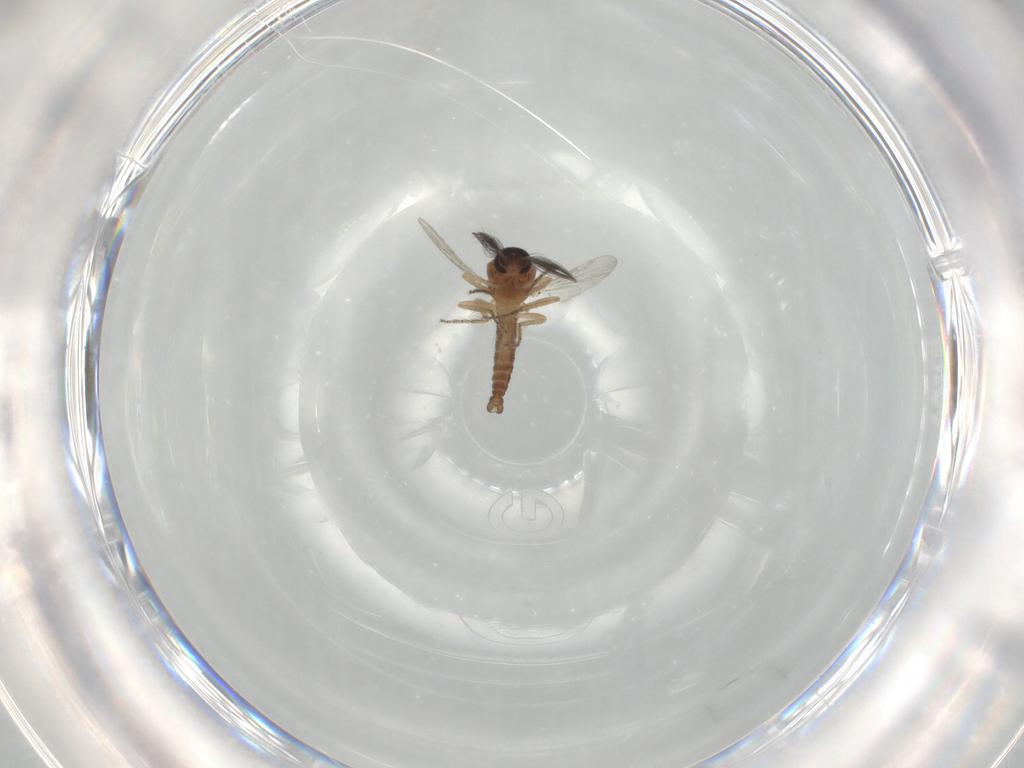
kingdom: Animalia
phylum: Arthropoda
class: Insecta
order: Diptera
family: Ceratopogonidae
